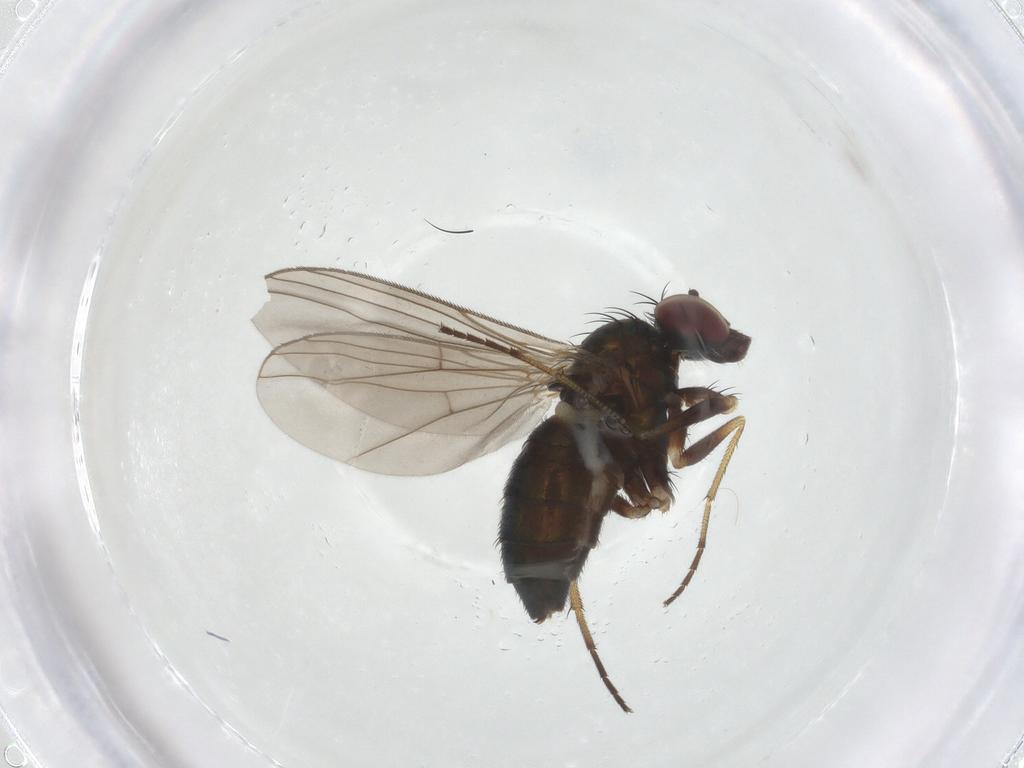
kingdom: Animalia
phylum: Arthropoda
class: Insecta
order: Diptera
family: Dolichopodidae
